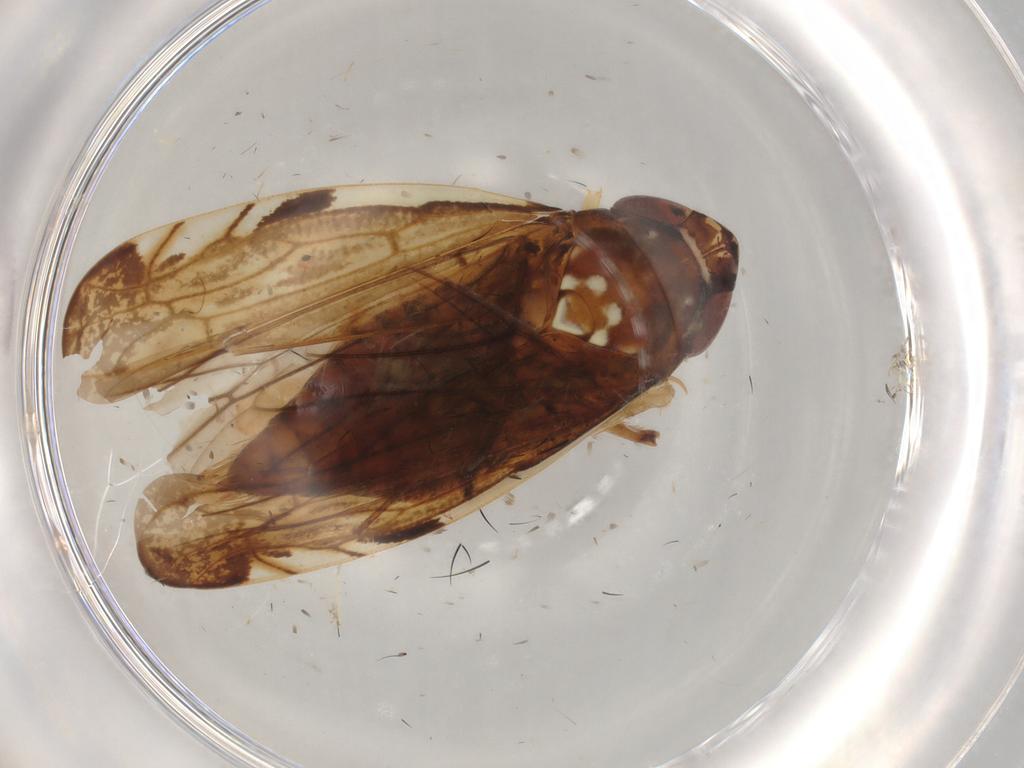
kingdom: Animalia
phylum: Arthropoda
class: Insecta
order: Hemiptera
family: Cicadellidae
